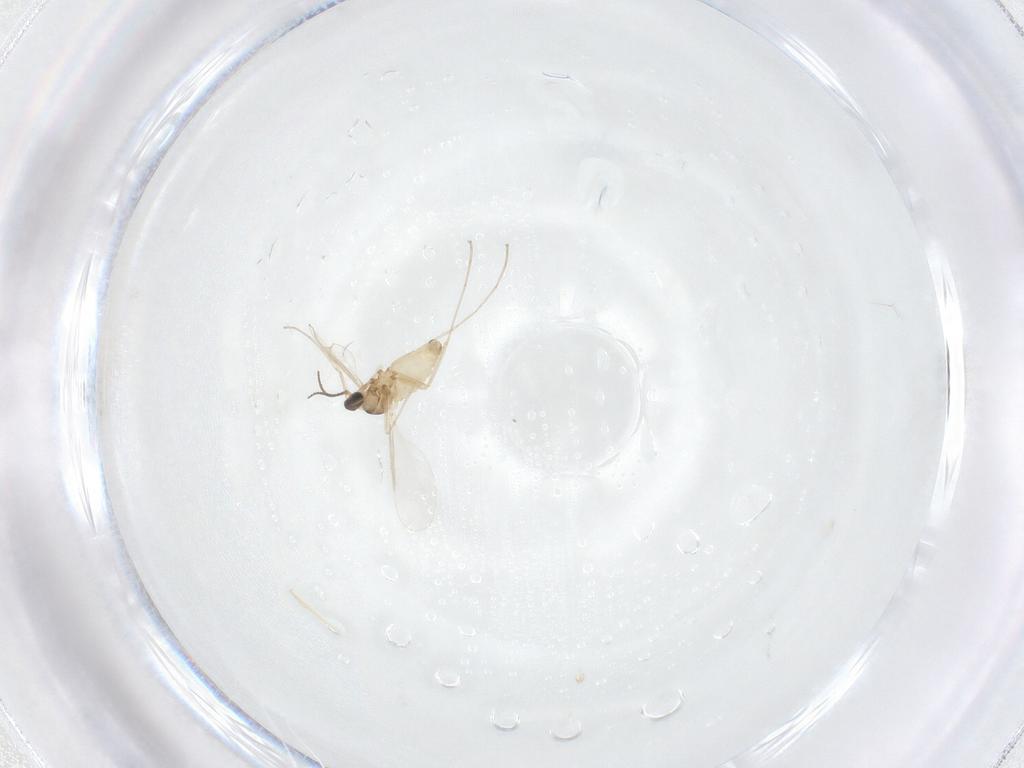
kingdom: Animalia
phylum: Arthropoda
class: Insecta
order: Diptera
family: Cecidomyiidae
